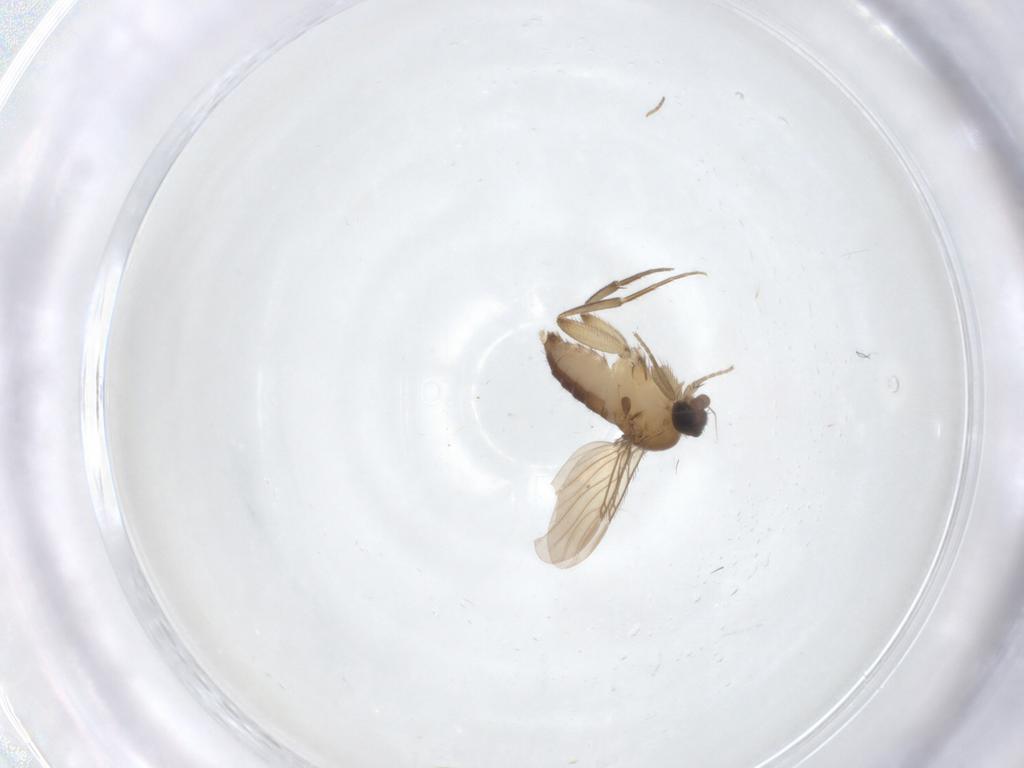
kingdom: Animalia
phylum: Arthropoda
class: Insecta
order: Diptera
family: Phoridae
